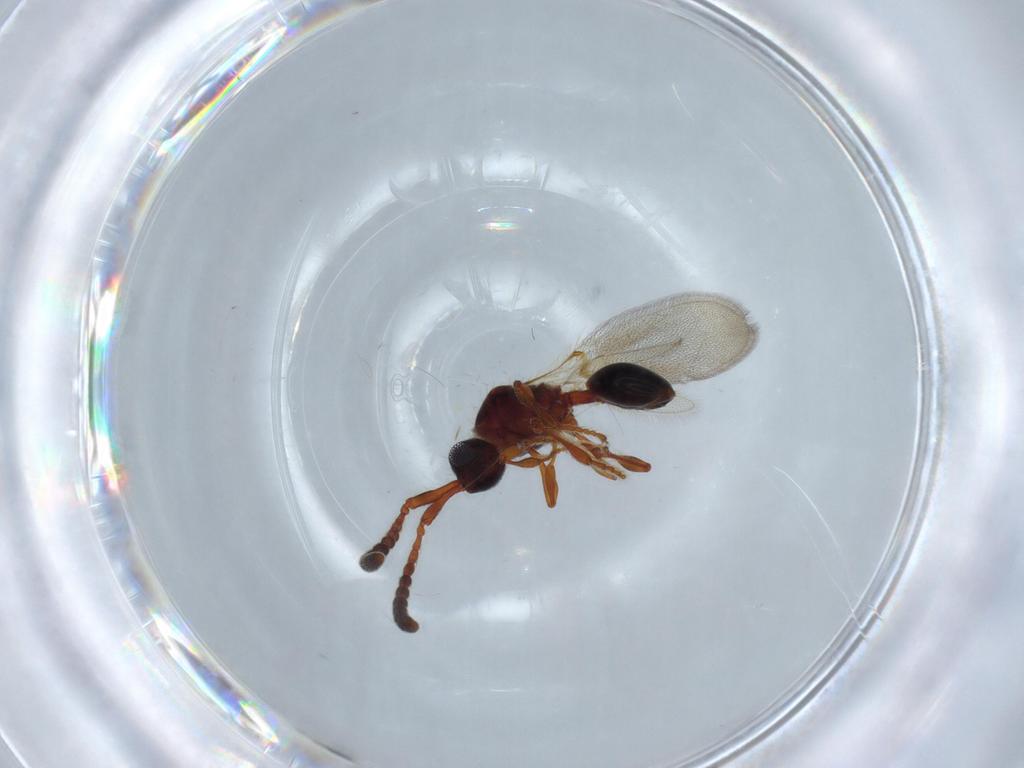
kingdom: Animalia
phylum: Arthropoda
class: Insecta
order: Hymenoptera
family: Diapriidae
